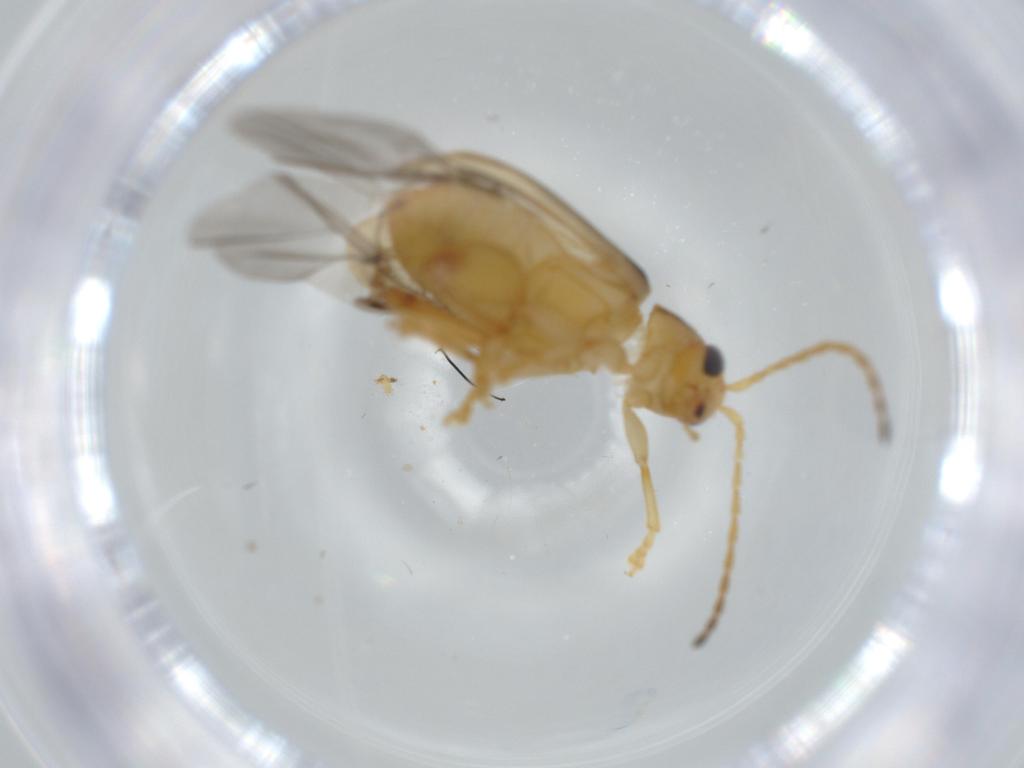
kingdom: Animalia
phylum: Arthropoda
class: Insecta
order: Coleoptera
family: Chrysomelidae
